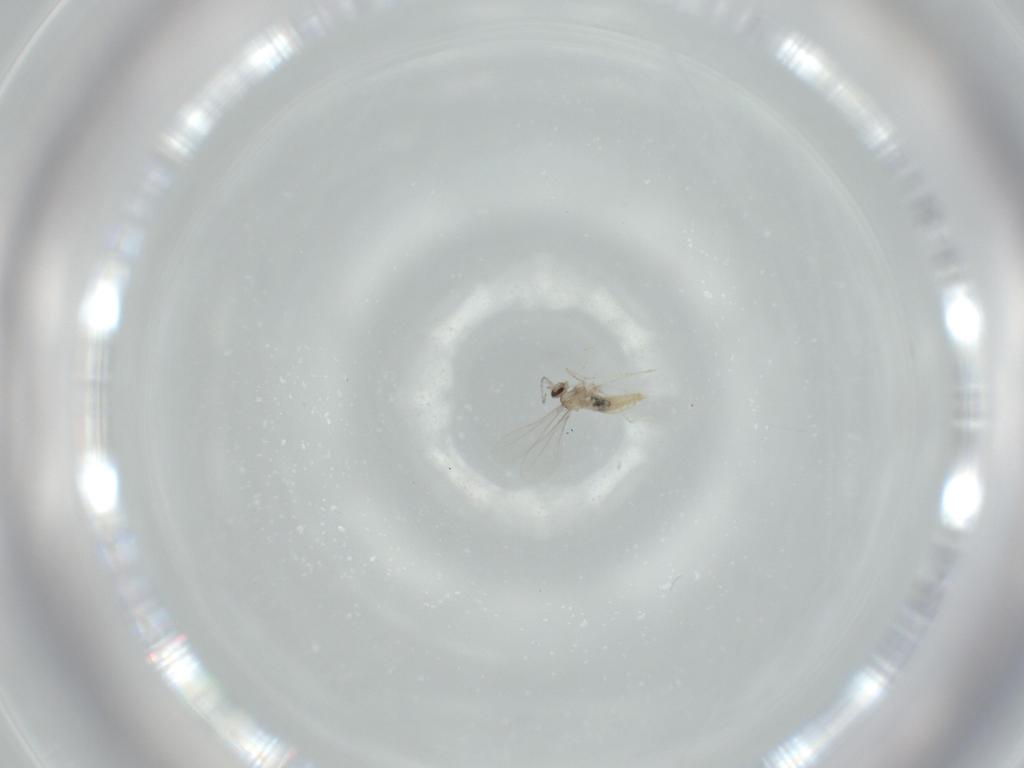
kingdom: Animalia
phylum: Arthropoda
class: Insecta
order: Diptera
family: Cecidomyiidae
